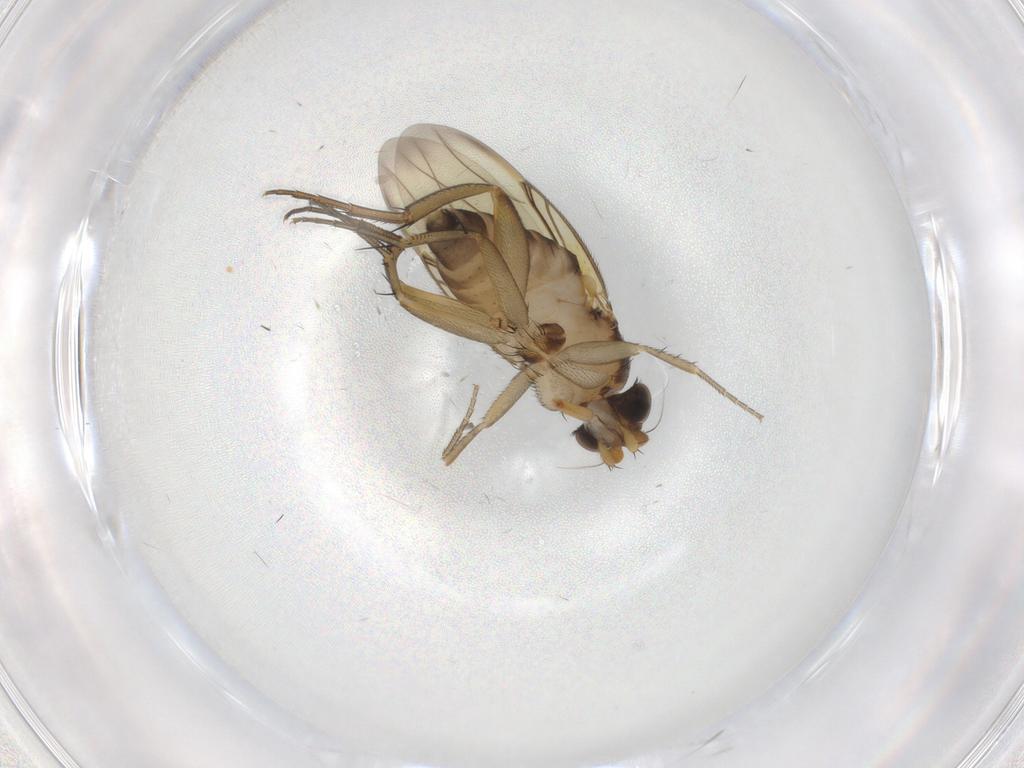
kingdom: Animalia
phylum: Arthropoda
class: Insecta
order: Diptera
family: Phoridae
